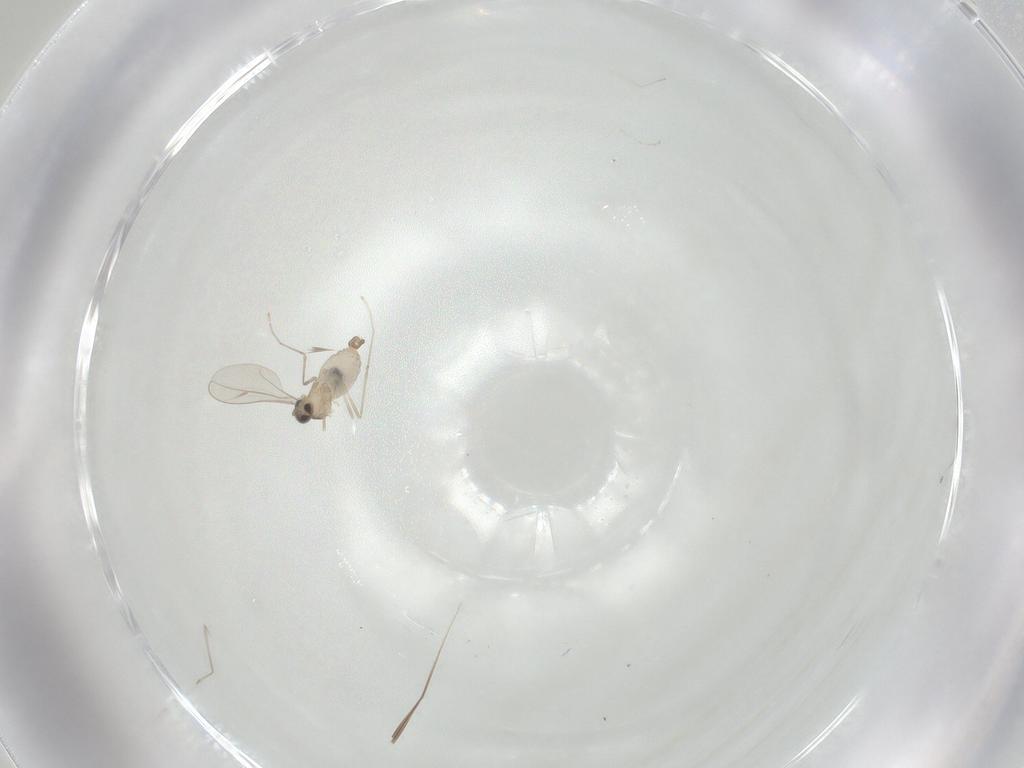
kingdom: Animalia
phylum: Arthropoda
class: Insecta
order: Diptera
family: Cecidomyiidae
